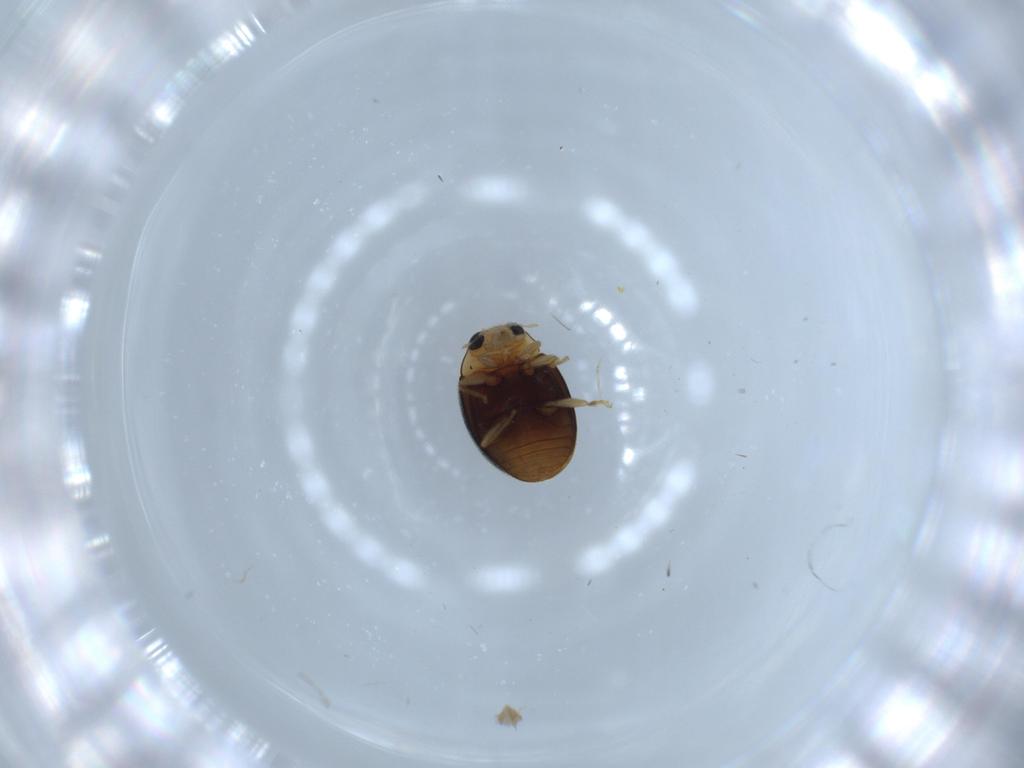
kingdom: Animalia
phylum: Arthropoda
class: Insecta
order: Coleoptera
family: Coccinellidae
